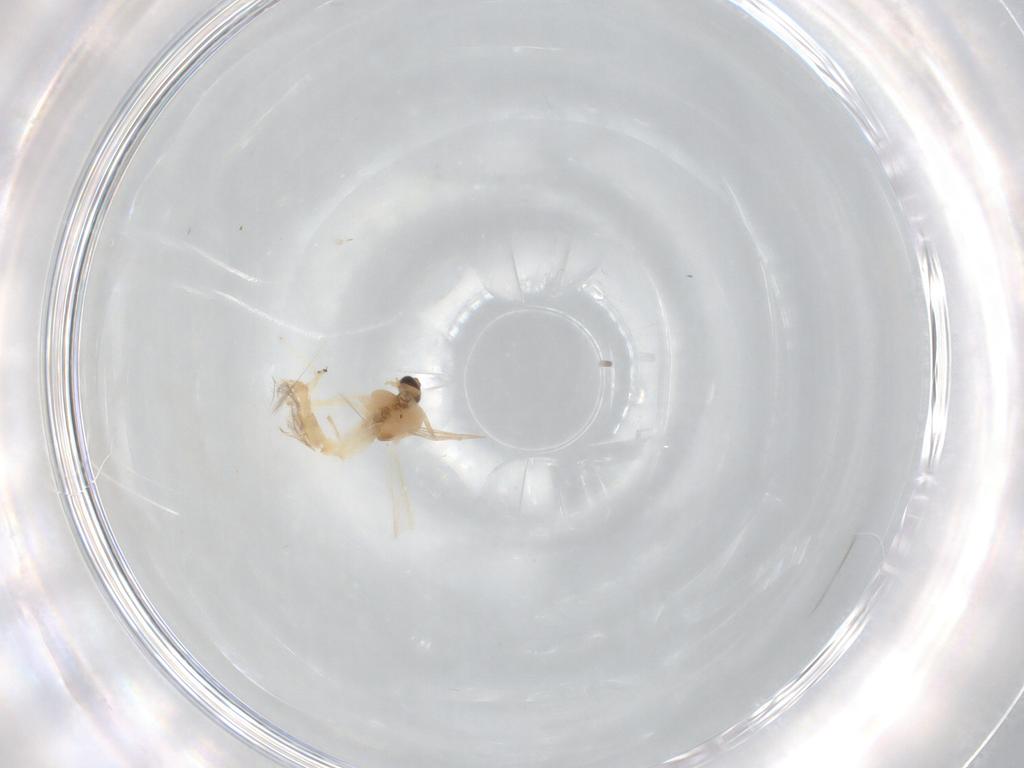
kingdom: Animalia
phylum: Arthropoda
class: Insecta
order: Diptera
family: Chironomidae
